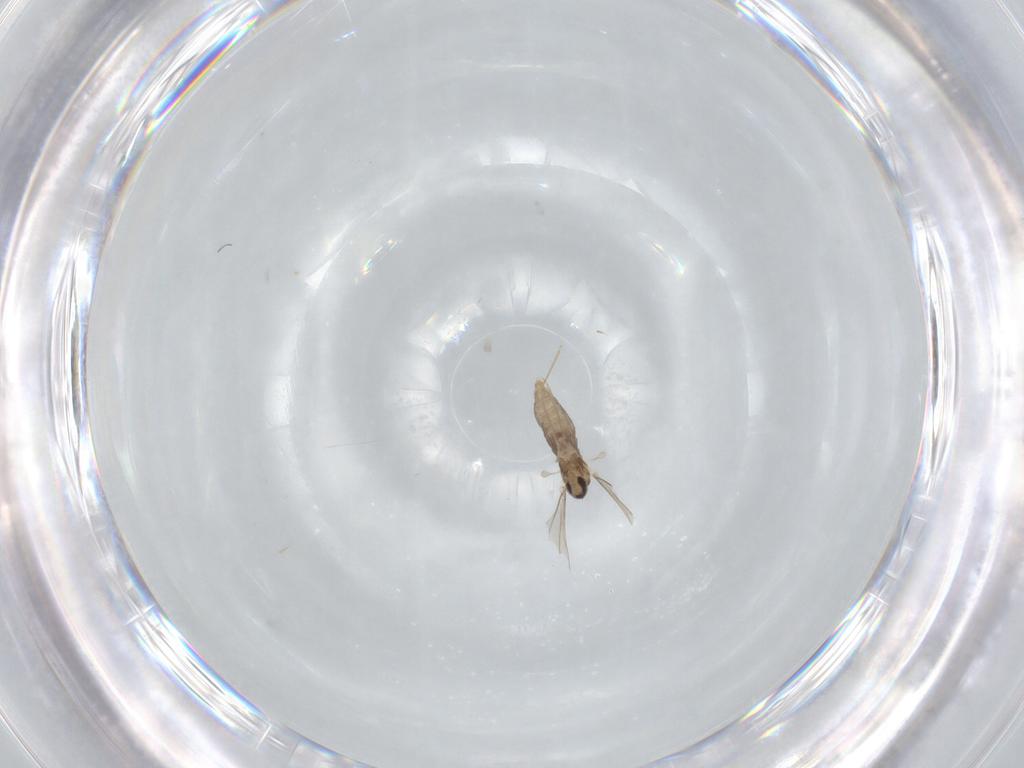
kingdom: Animalia
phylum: Arthropoda
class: Insecta
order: Diptera
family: Cecidomyiidae
